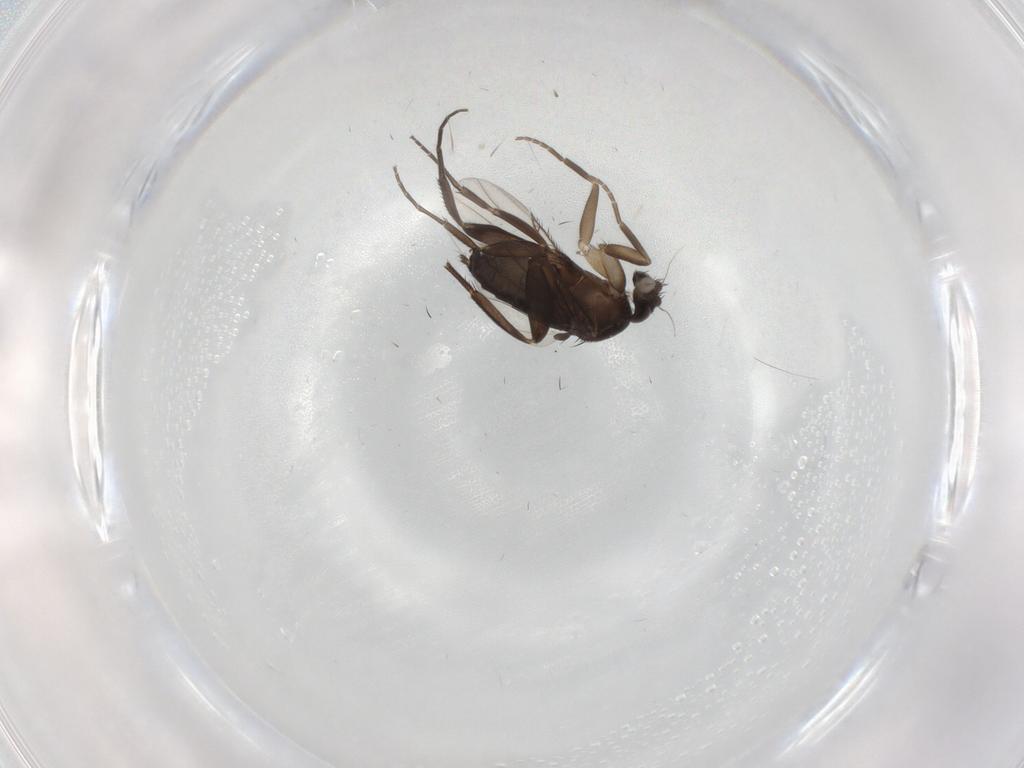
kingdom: Animalia
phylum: Arthropoda
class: Insecta
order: Diptera
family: Phoridae
